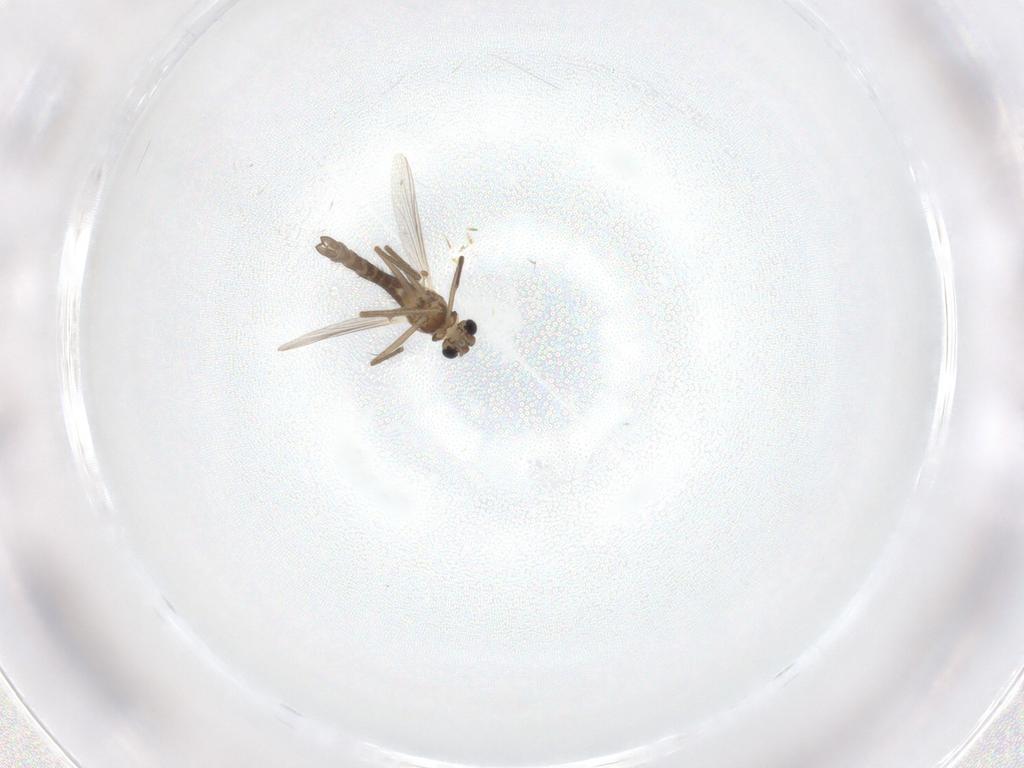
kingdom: Animalia
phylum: Arthropoda
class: Insecta
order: Diptera
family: Chironomidae
